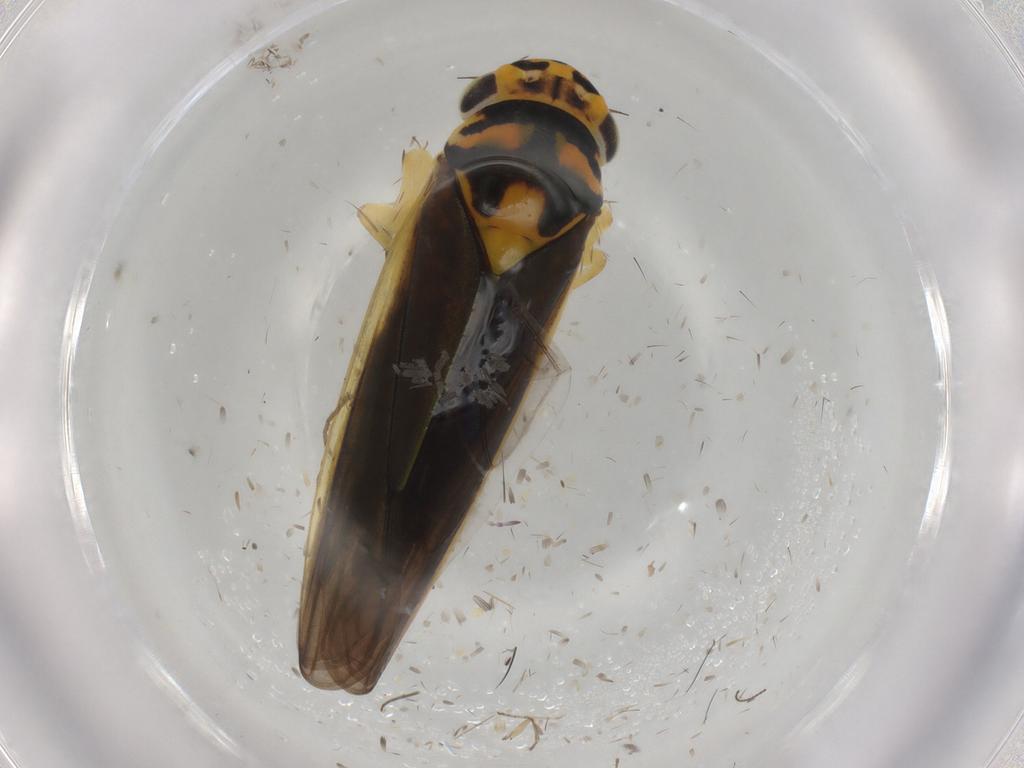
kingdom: Animalia
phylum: Arthropoda
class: Insecta
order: Hemiptera
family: Cicadellidae
